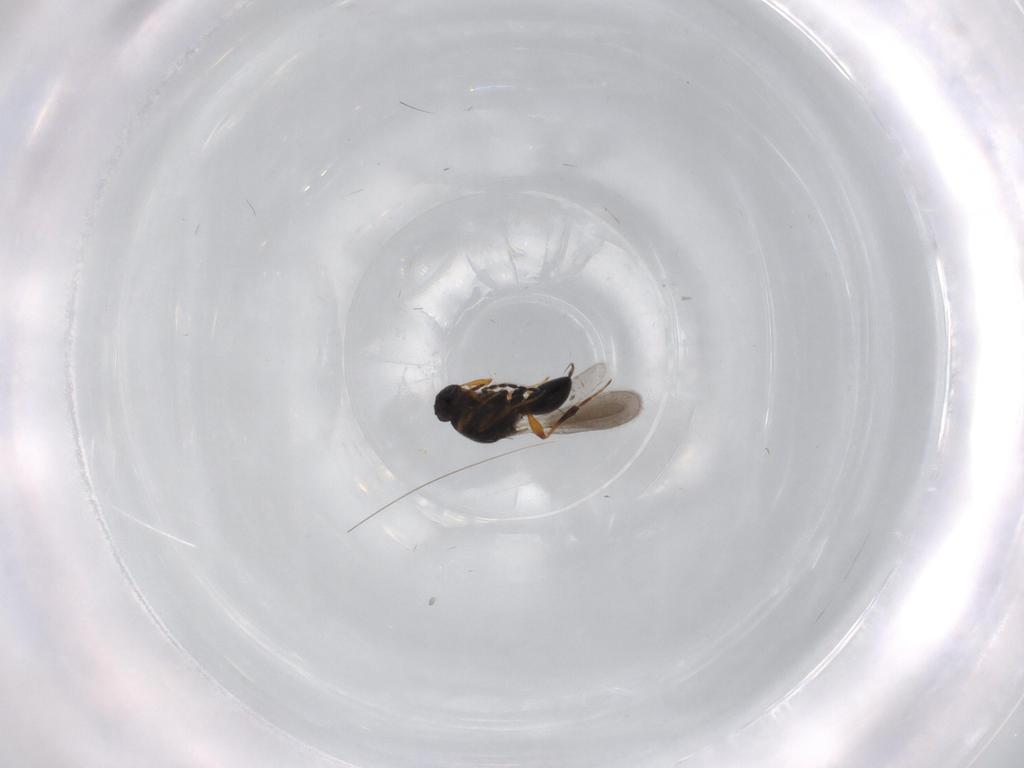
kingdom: Animalia
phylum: Arthropoda
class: Insecta
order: Hymenoptera
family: Platygastridae
